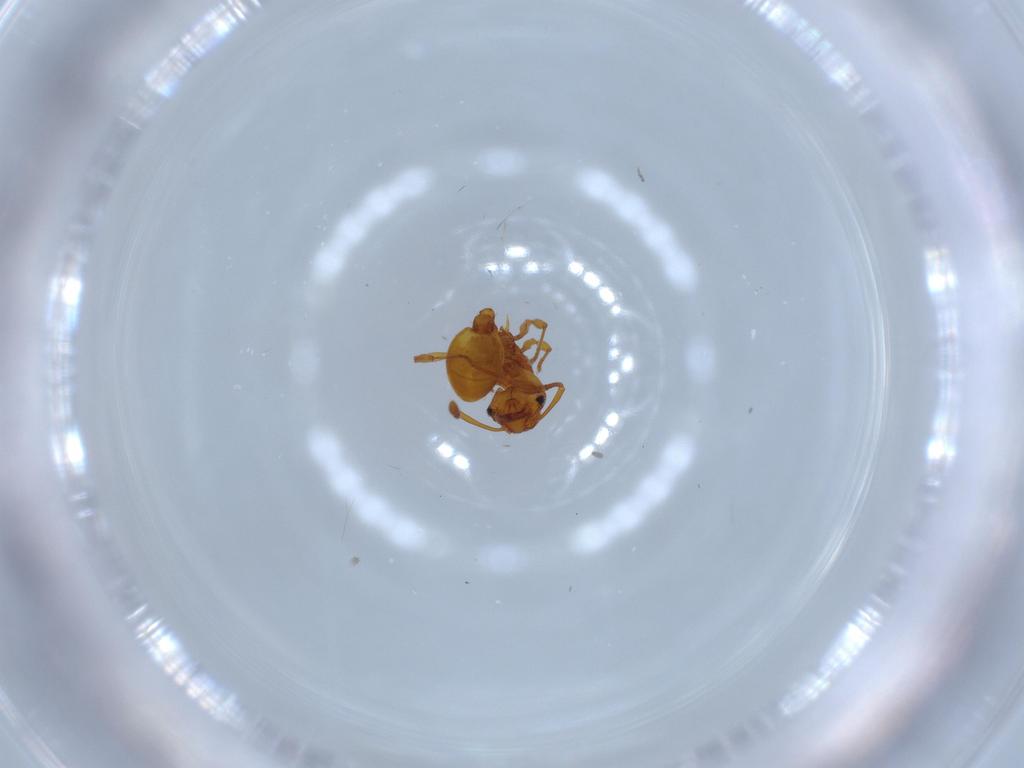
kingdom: Animalia
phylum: Arthropoda
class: Insecta
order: Hymenoptera
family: Formicidae
